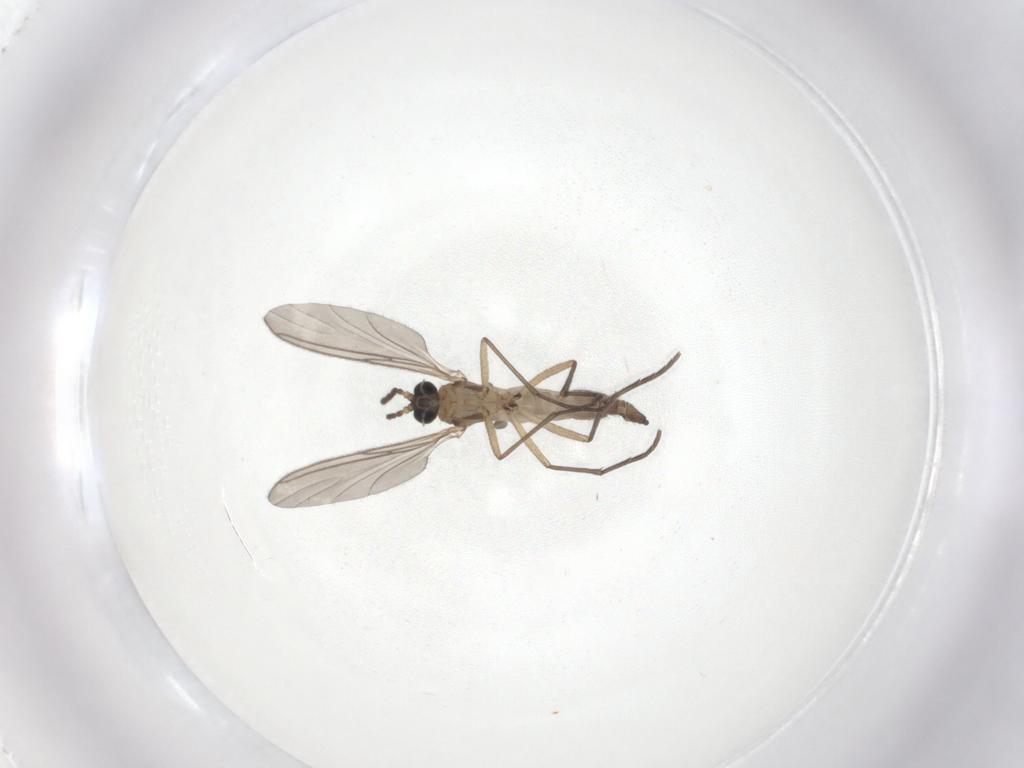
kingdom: Animalia
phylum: Arthropoda
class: Insecta
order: Diptera
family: Sciaridae
